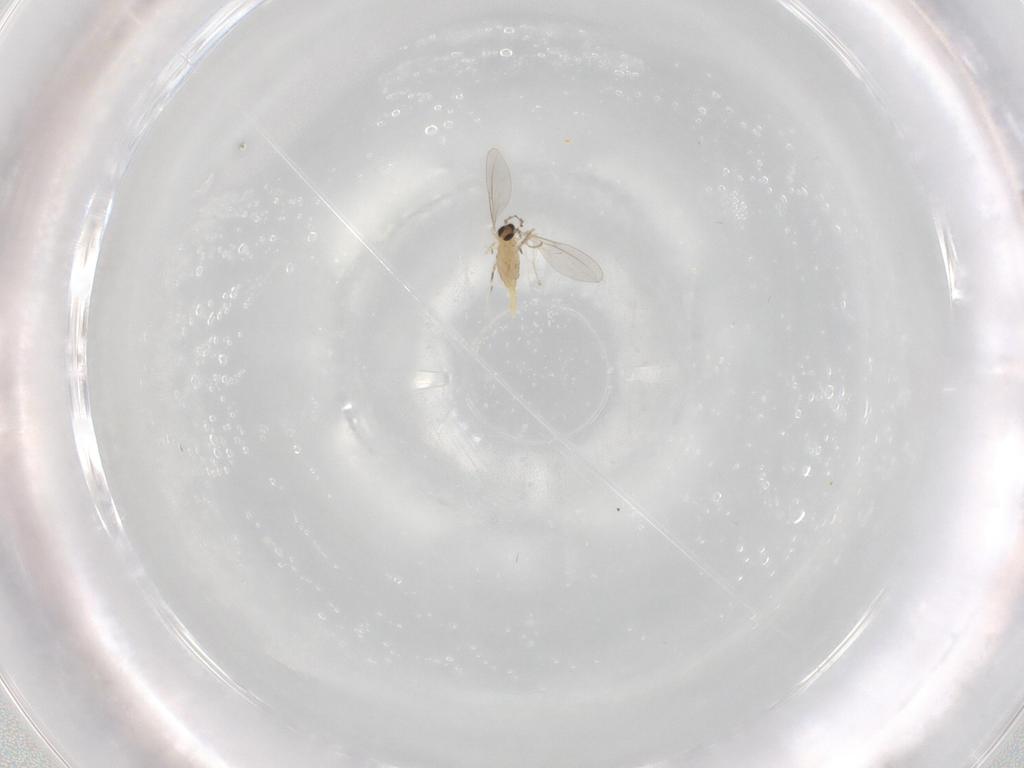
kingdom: Animalia
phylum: Arthropoda
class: Insecta
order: Diptera
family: Cecidomyiidae
